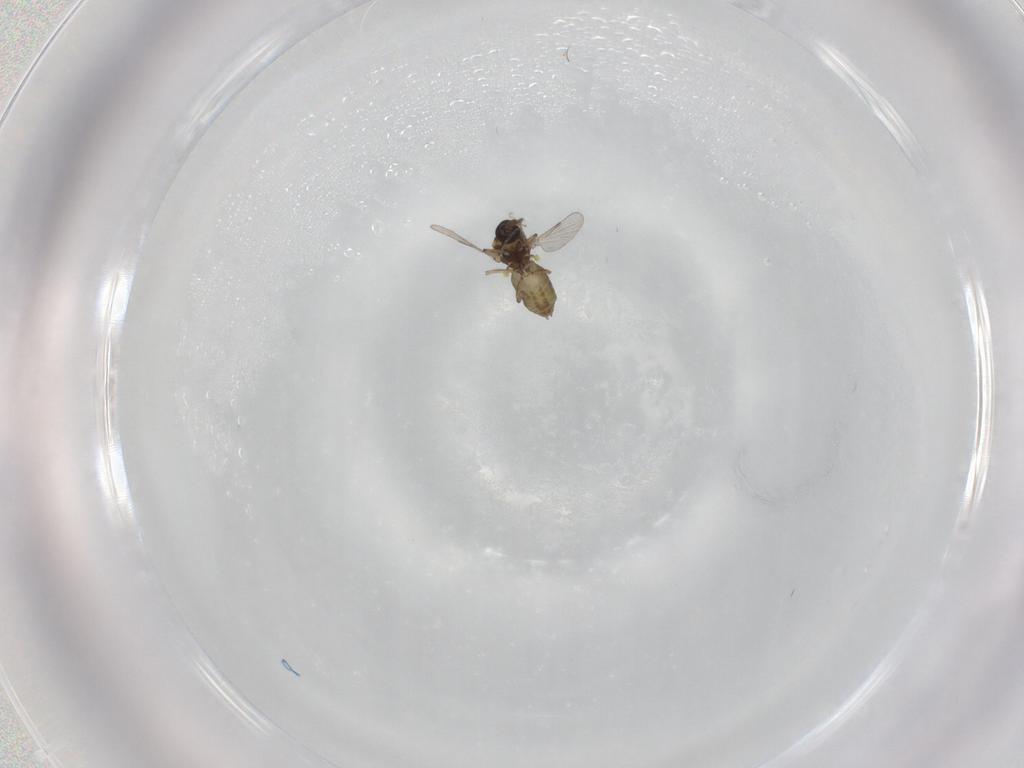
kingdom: Animalia
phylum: Arthropoda
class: Insecta
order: Diptera
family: Ceratopogonidae
